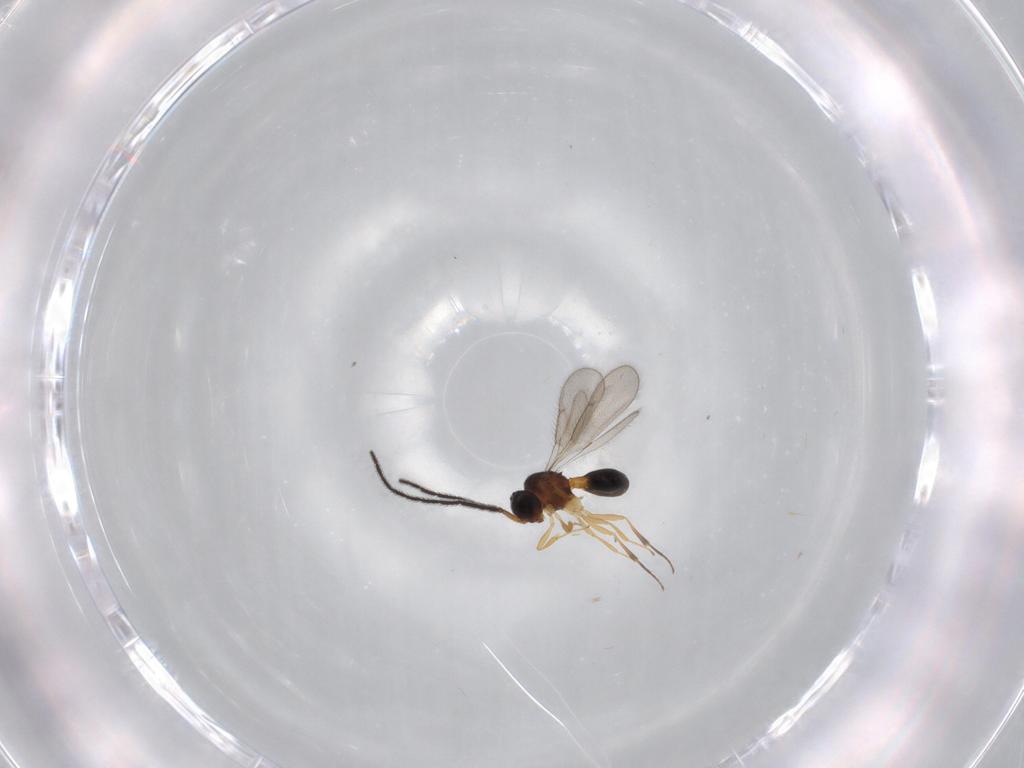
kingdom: Animalia
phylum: Arthropoda
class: Insecta
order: Hymenoptera
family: Scelionidae
